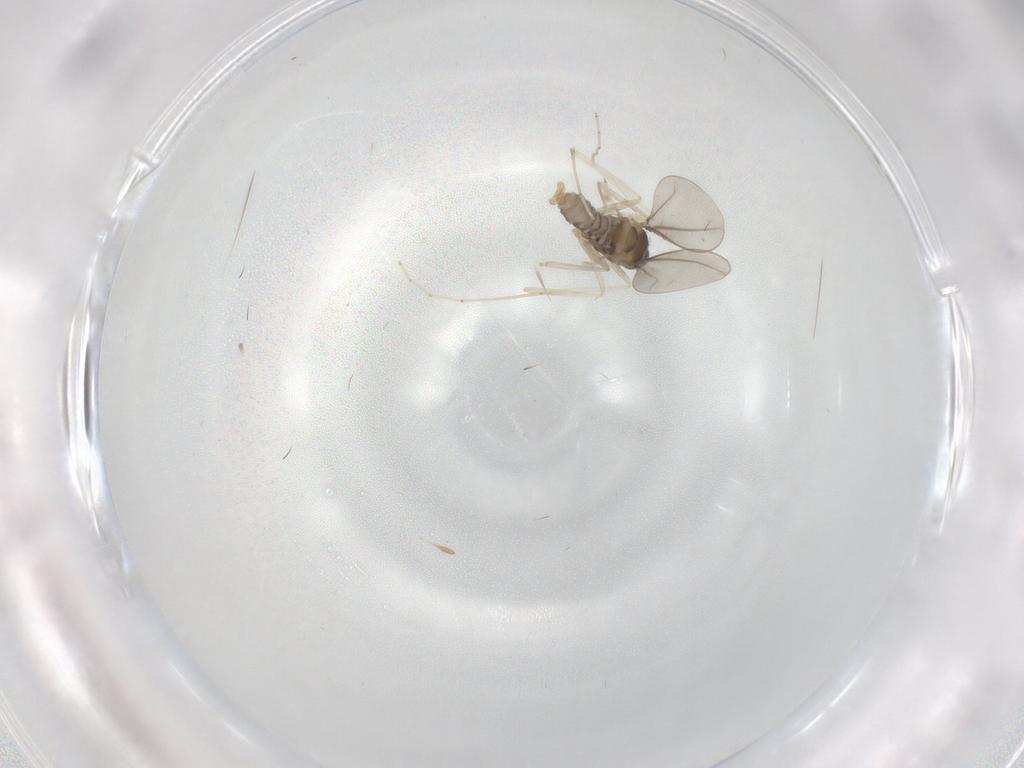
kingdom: Animalia
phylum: Arthropoda
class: Insecta
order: Diptera
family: Cecidomyiidae
